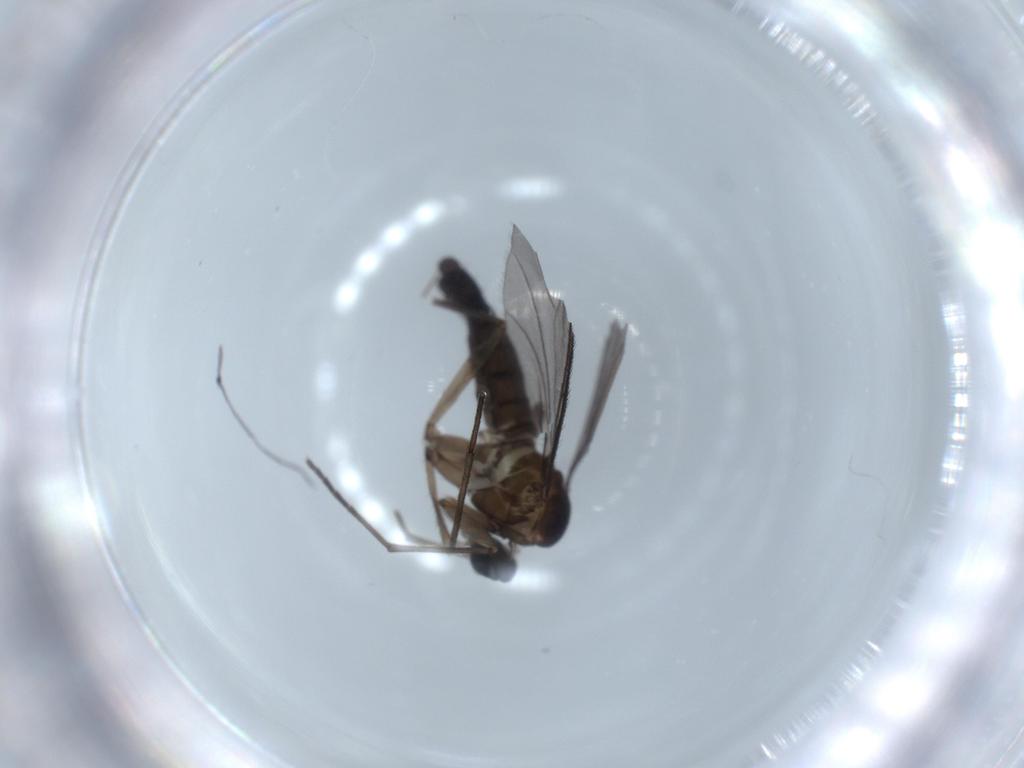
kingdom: Animalia
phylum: Arthropoda
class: Insecta
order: Diptera
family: Sciaridae
